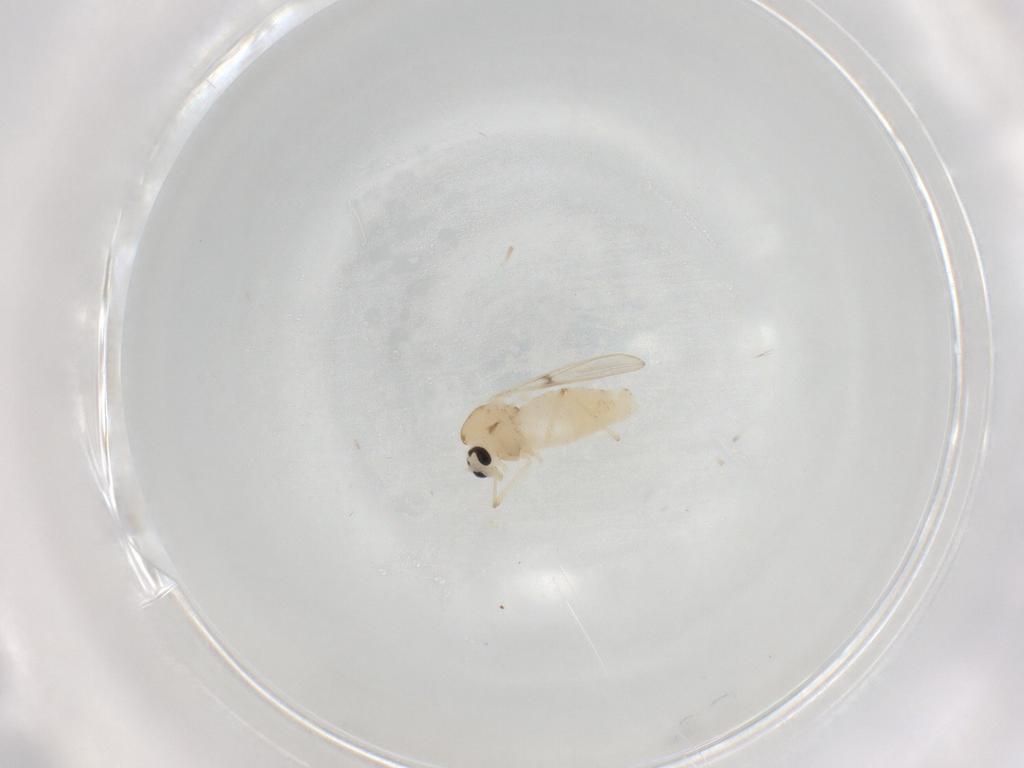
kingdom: Animalia
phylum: Arthropoda
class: Insecta
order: Diptera
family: Chironomidae
